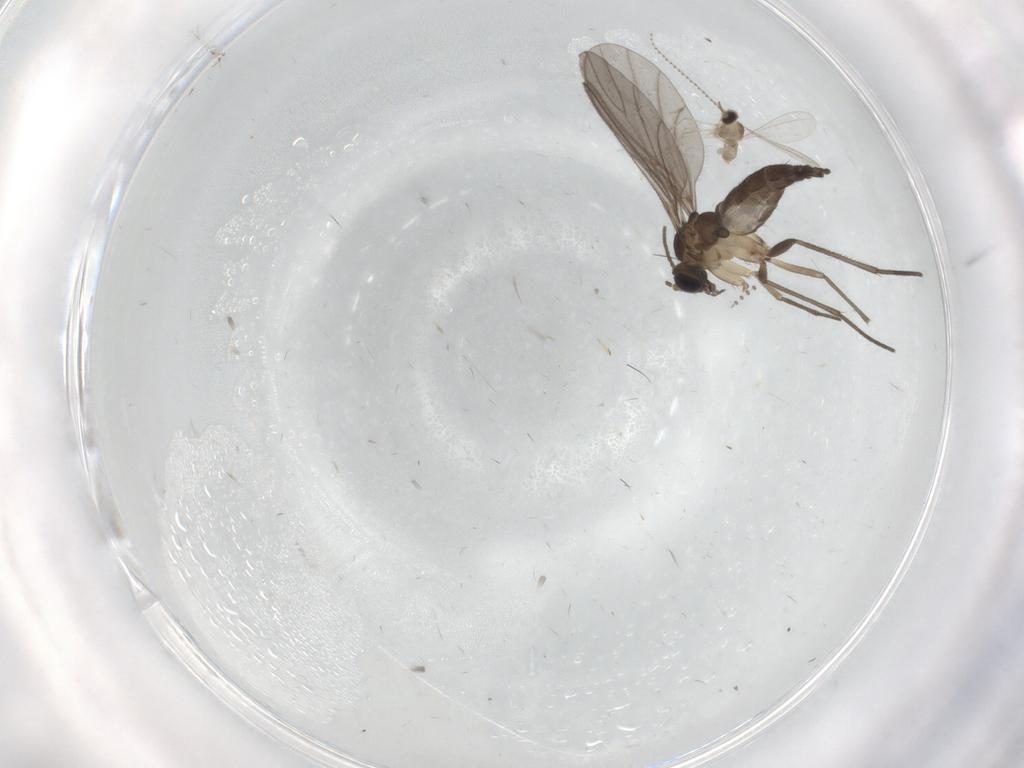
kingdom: Animalia
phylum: Arthropoda
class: Insecta
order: Diptera
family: Sciaridae
